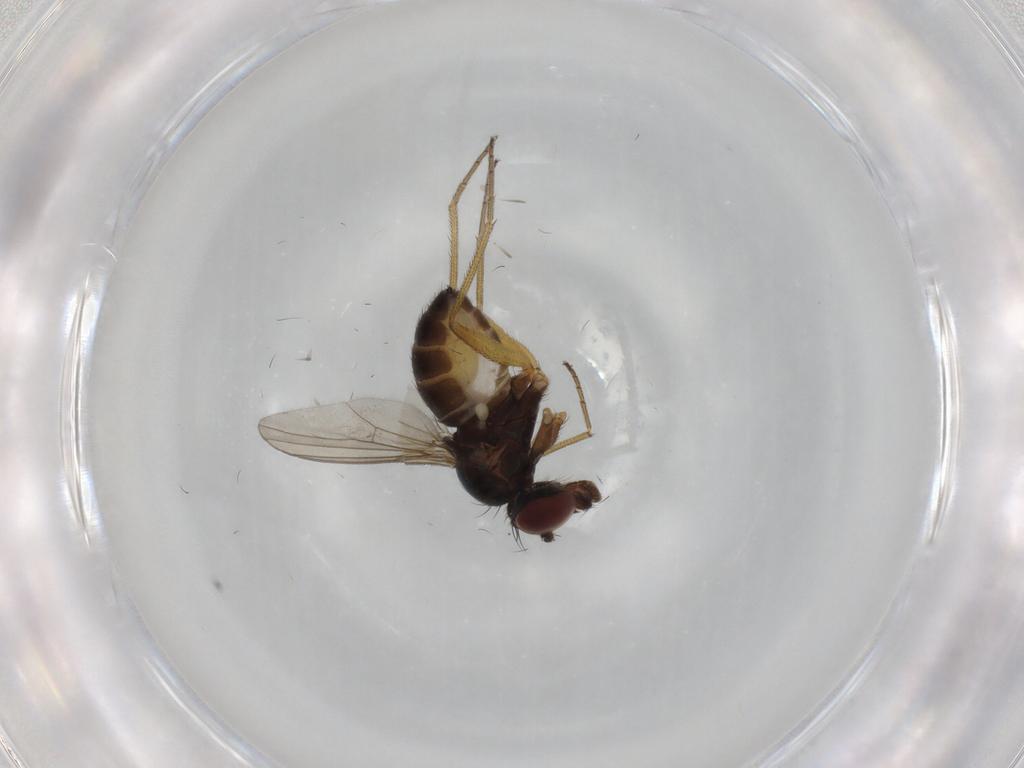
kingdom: Animalia
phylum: Arthropoda
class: Insecta
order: Diptera
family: Dolichopodidae
